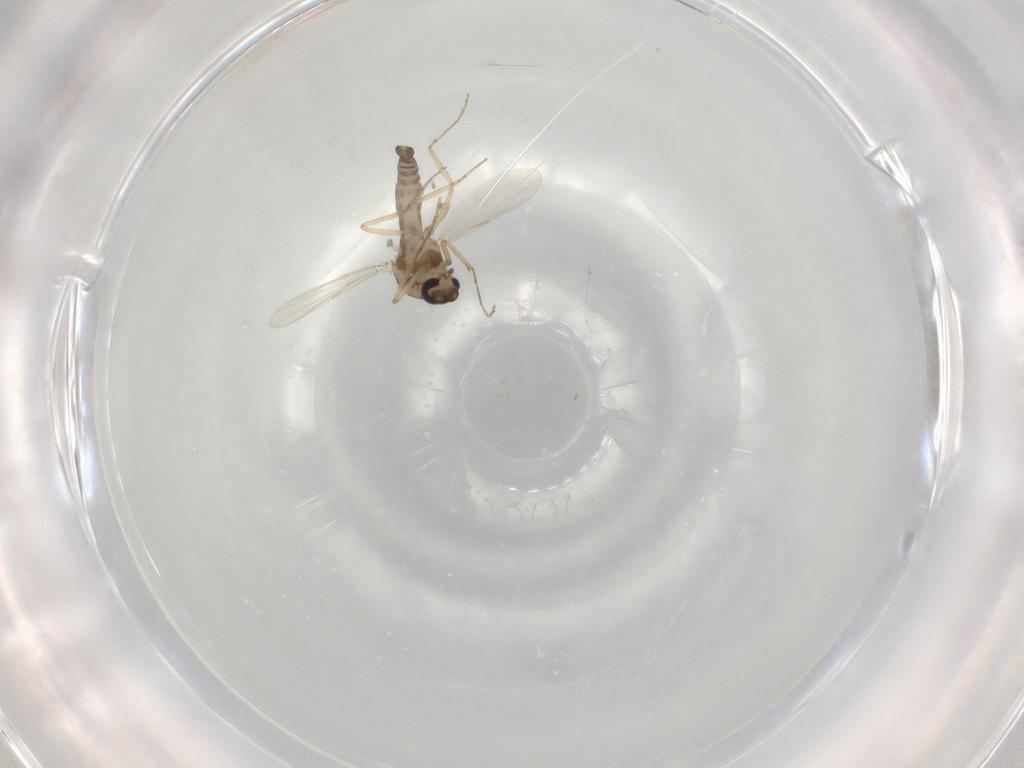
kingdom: Animalia
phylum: Arthropoda
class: Insecta
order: Diptera
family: Ceratopogonidae
